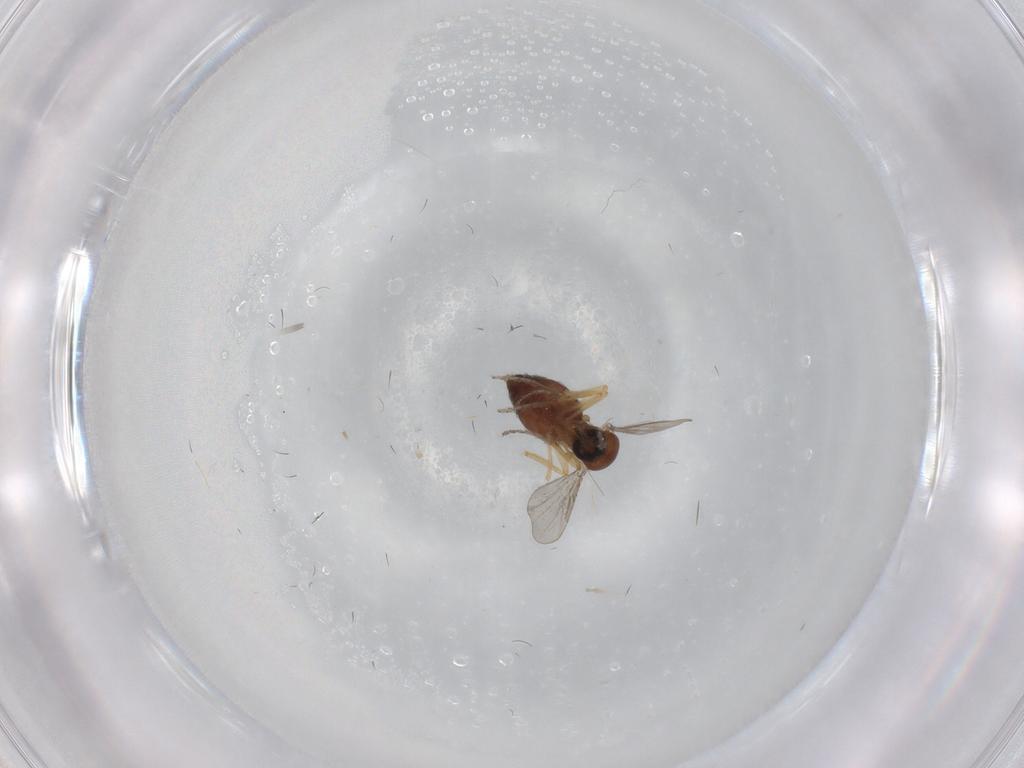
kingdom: Animalia
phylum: Arthropoda
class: Insecta
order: Diptera
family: Ceratopogonidae
